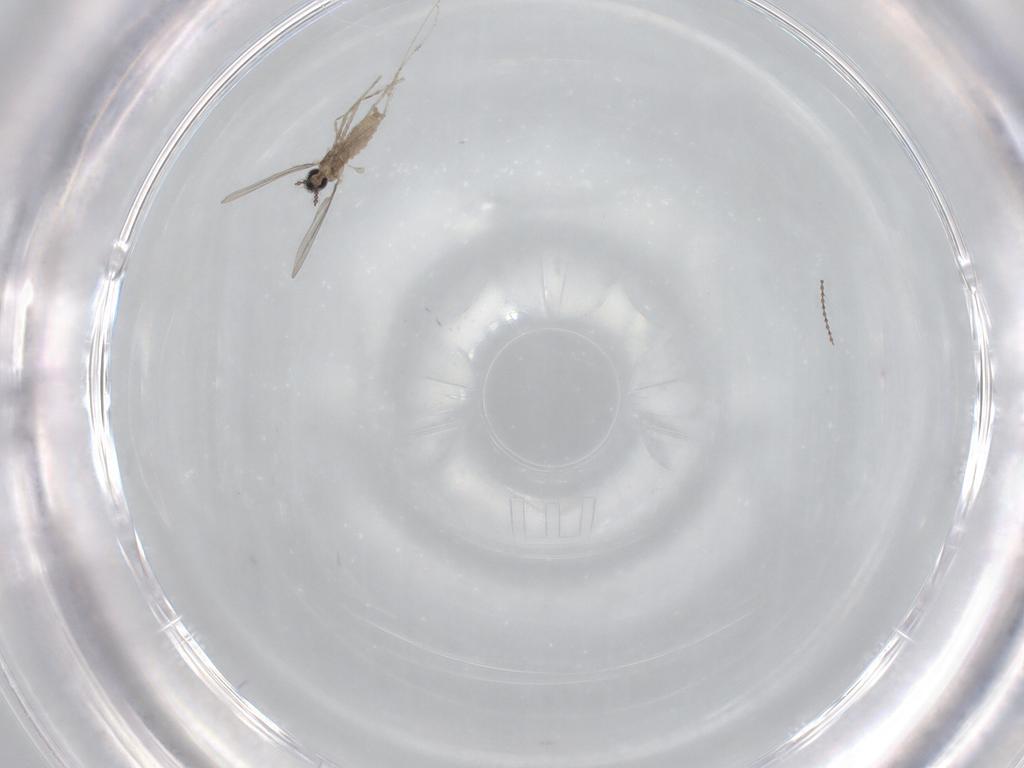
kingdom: Animalia
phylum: Arthropoda
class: Insecta
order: Diptera
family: Cecidomyiidae
